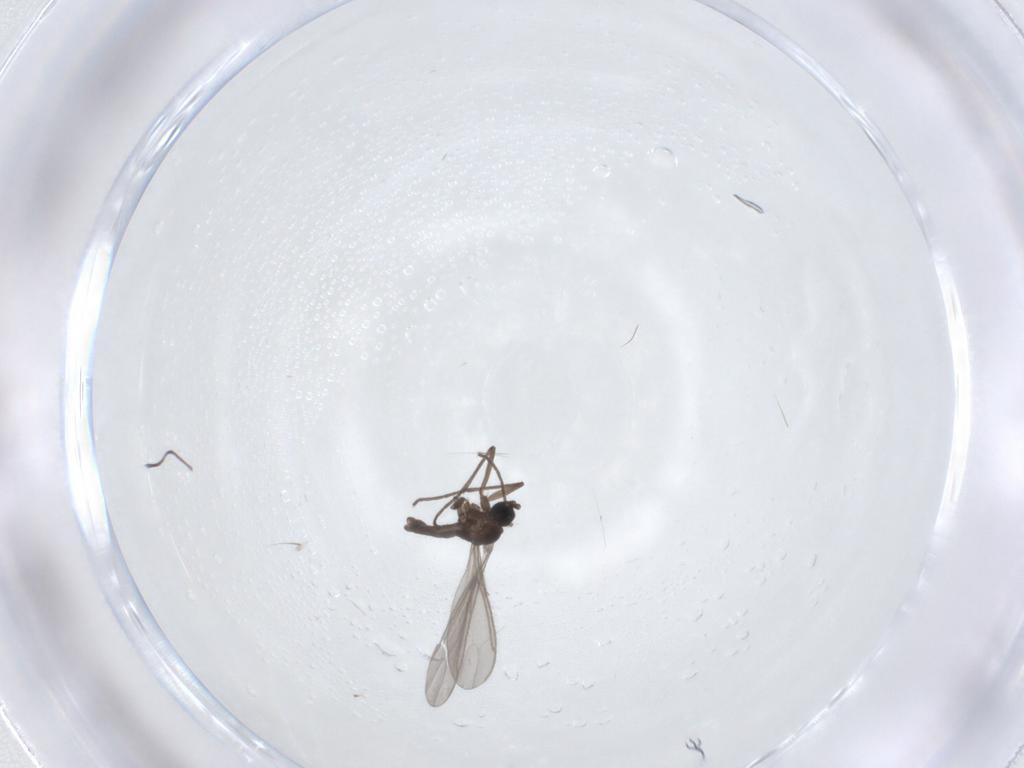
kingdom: Animalia
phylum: Arthropoda
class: Insecta
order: Diptera
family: Sciaridae
